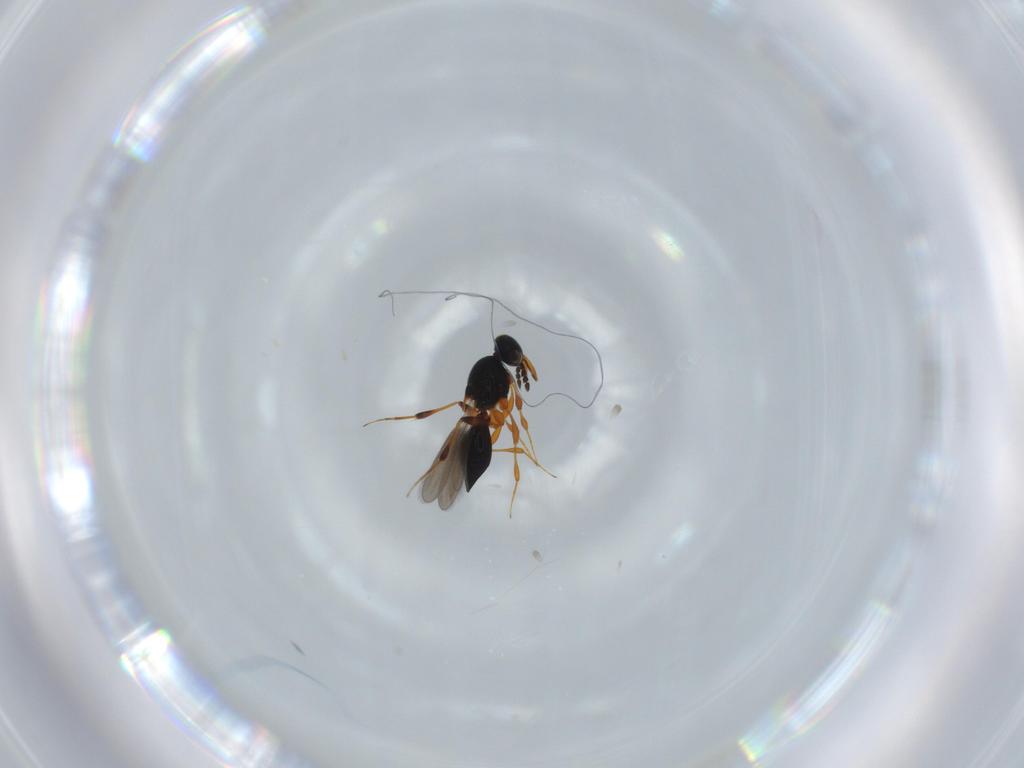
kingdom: Animalia
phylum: Arthropoda
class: Insecta
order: Hymenoptera
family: Platygastridae
